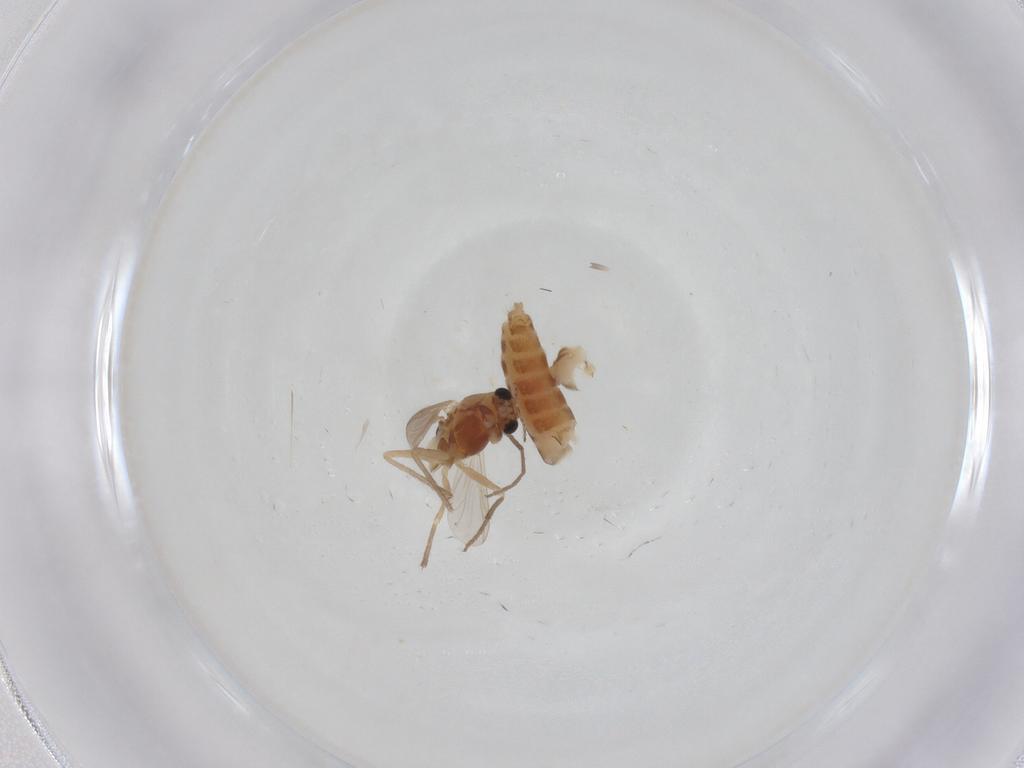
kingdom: Animalia
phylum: Arthropoda
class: Insecta
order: Diptera
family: Chironomidae
